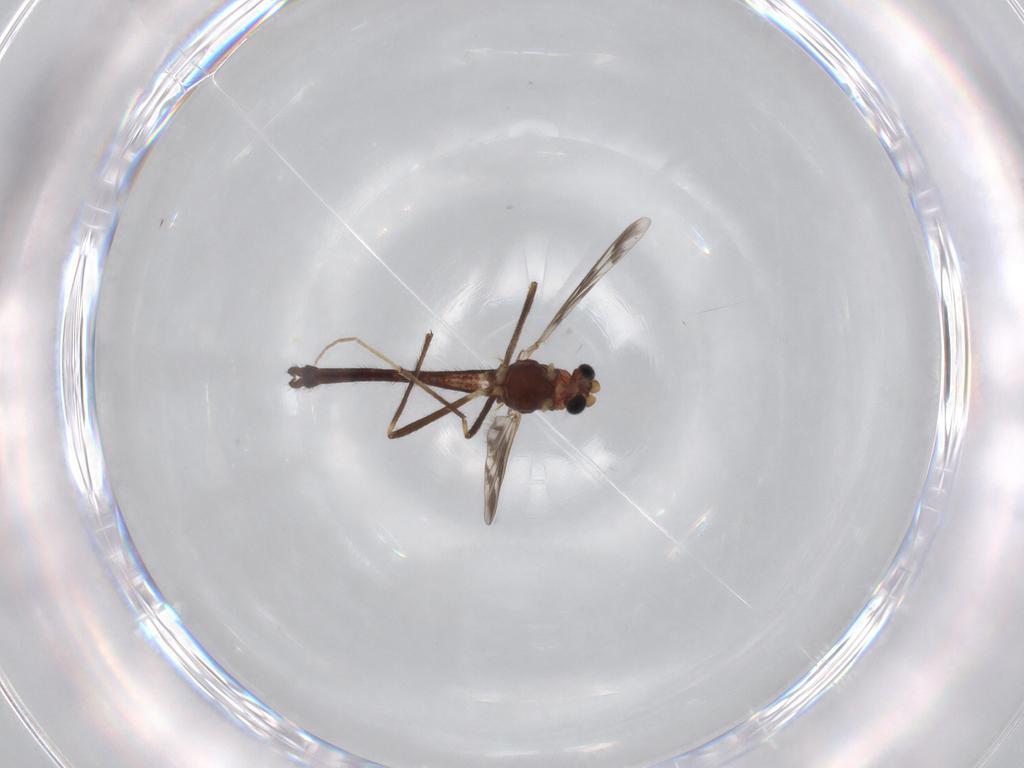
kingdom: Animalia
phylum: Arthropoda
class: Insecta
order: Diptera
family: Chironomidae
